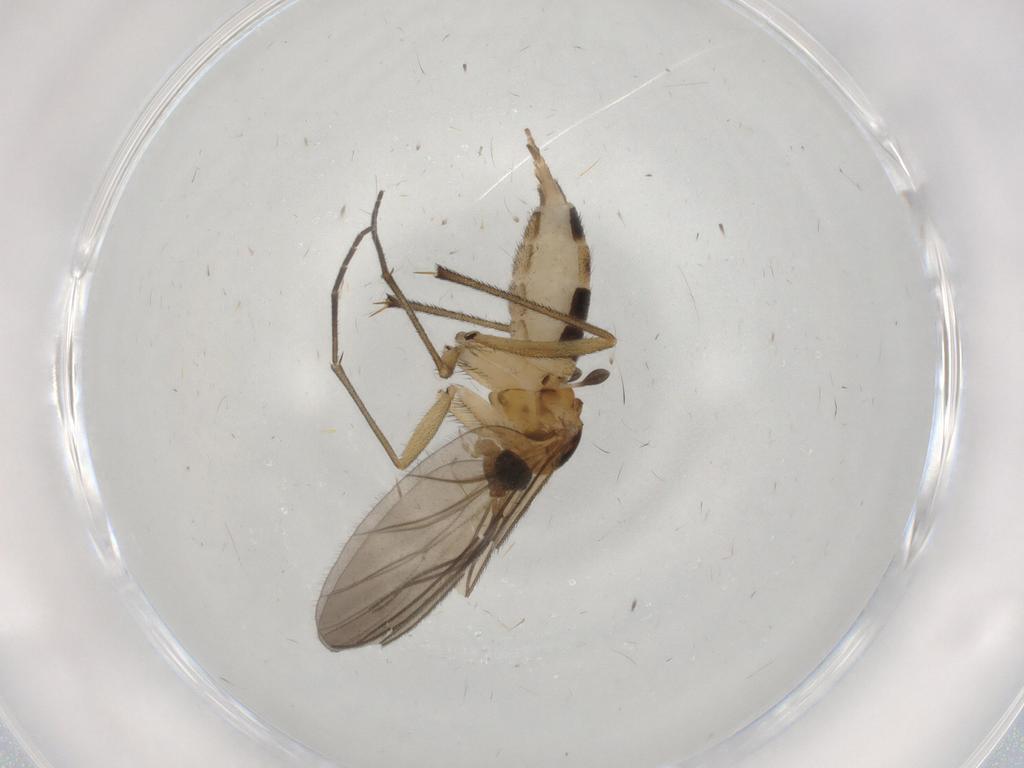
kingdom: Animalia
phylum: Arthropoda
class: Insecta
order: Diptera
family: Sciaridae
